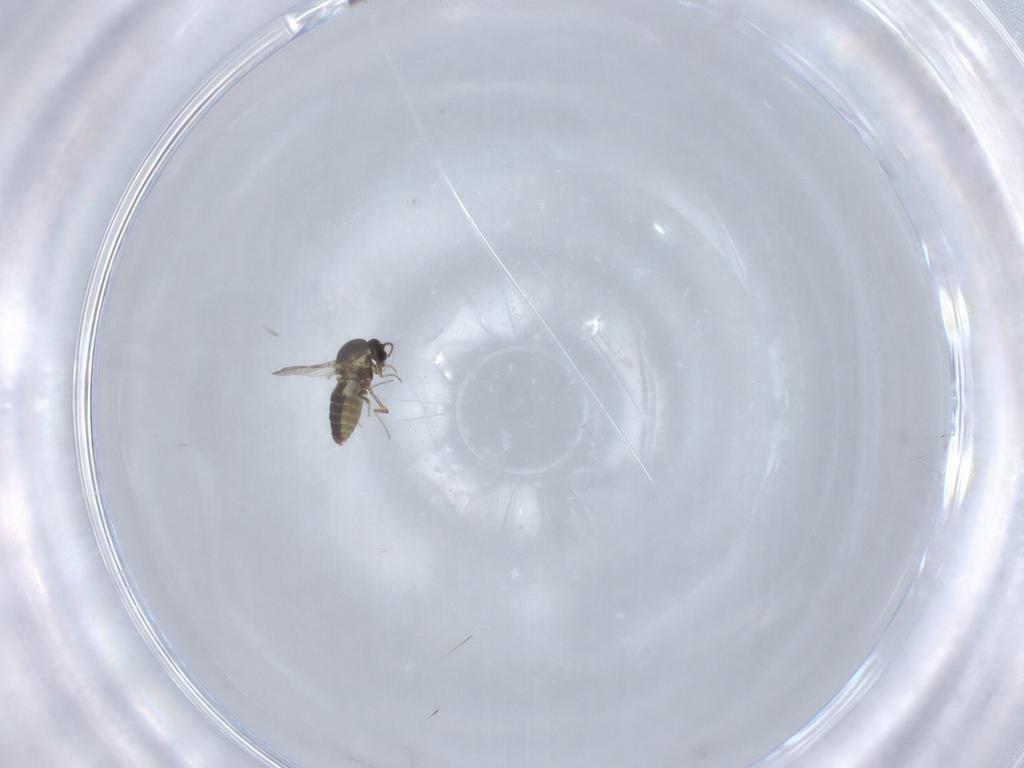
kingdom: Animalia
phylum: Arthropoda
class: Insecta
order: Diptera
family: Ceratopogonidae
